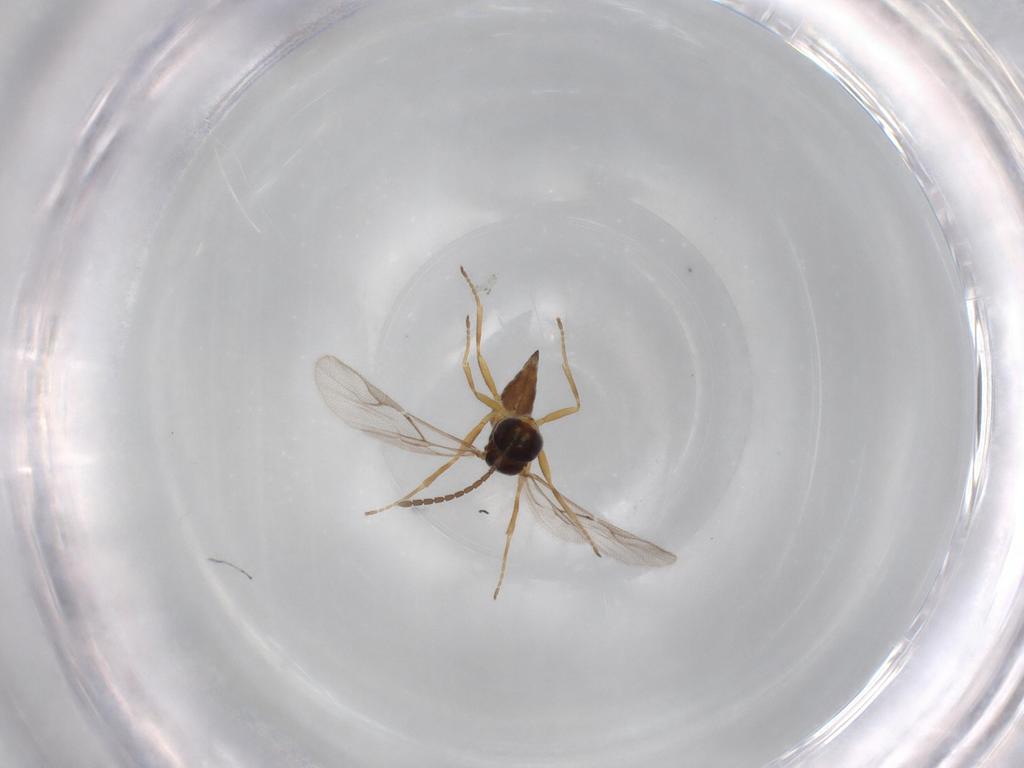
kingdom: Animalia
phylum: Arthropoda
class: Insecta
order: Hymenoptera
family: Braconidae
